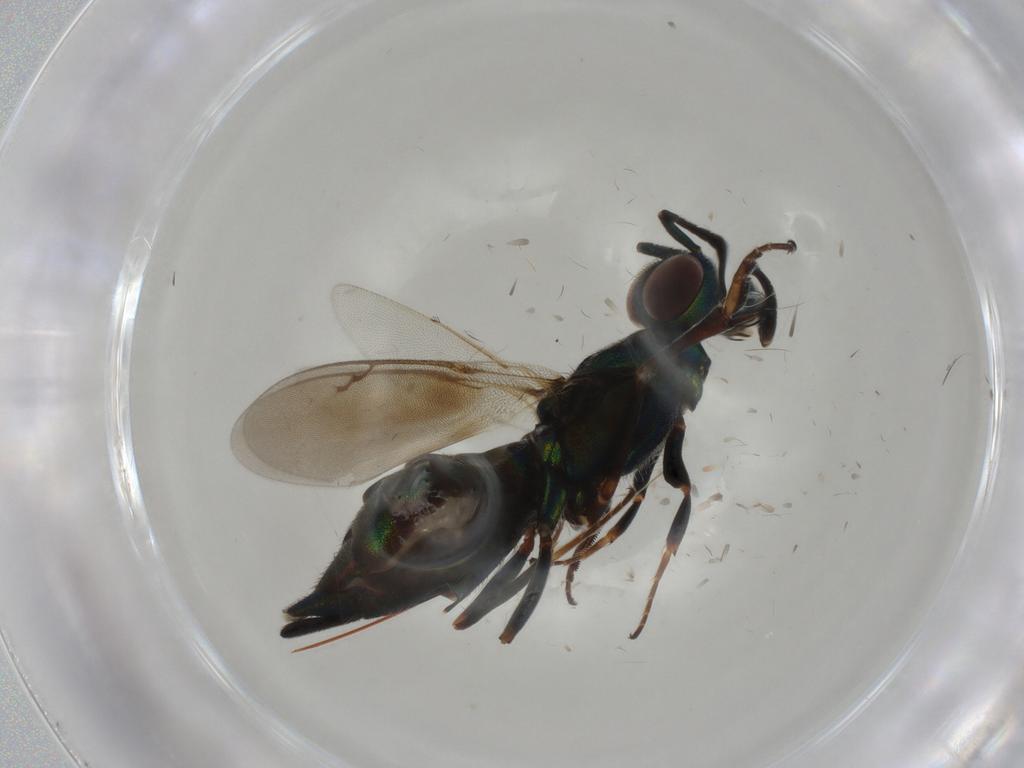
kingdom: Animalia
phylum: Arthropoda
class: Insecta
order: Hymenoptera
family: Eupelmidae
